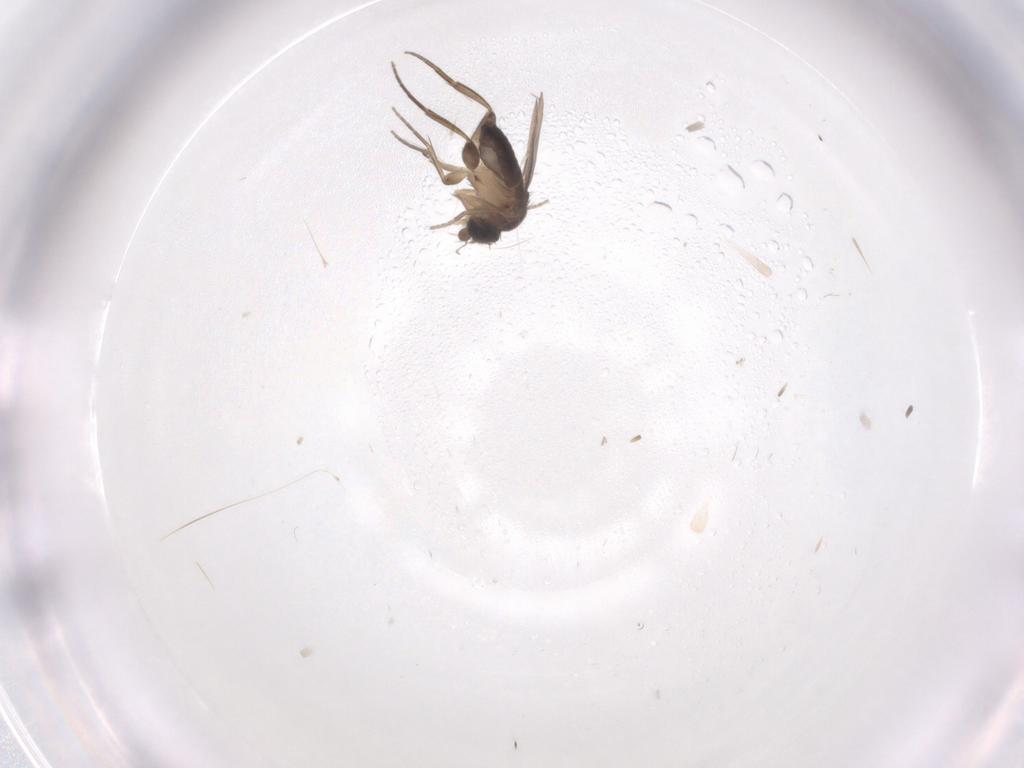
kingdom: Animalia
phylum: Arthropoda
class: Insecta
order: Diptera
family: Phoridae
